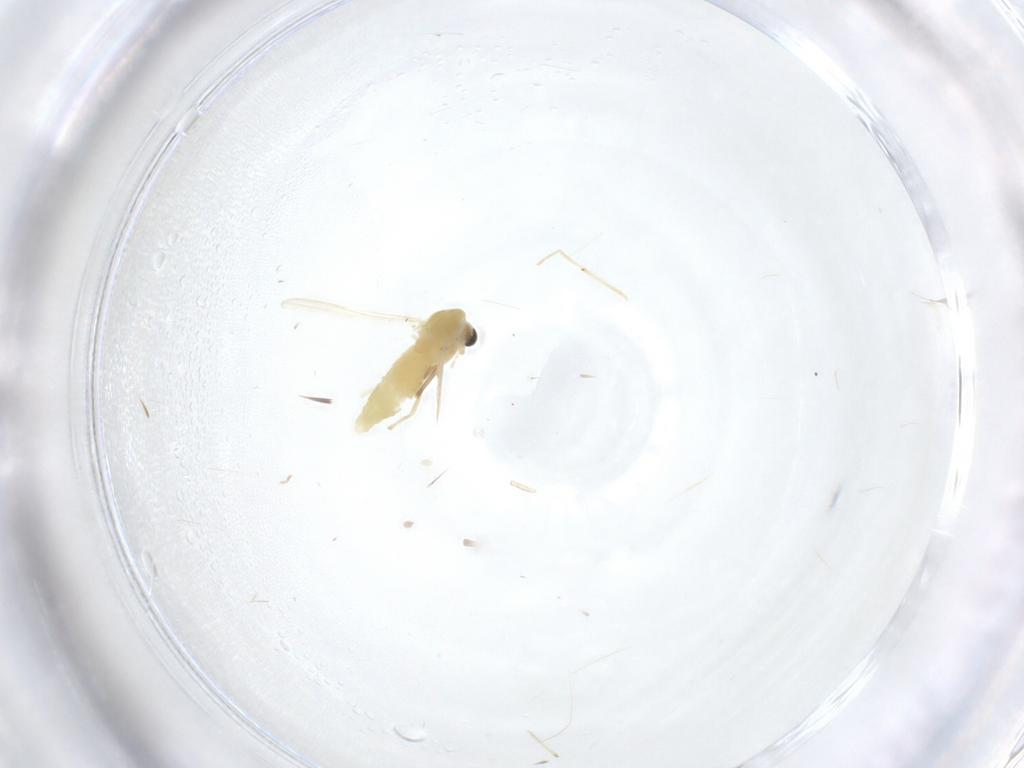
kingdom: Animalia
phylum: Arthropoda
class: Insecta
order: Diptera
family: Chironomidae
